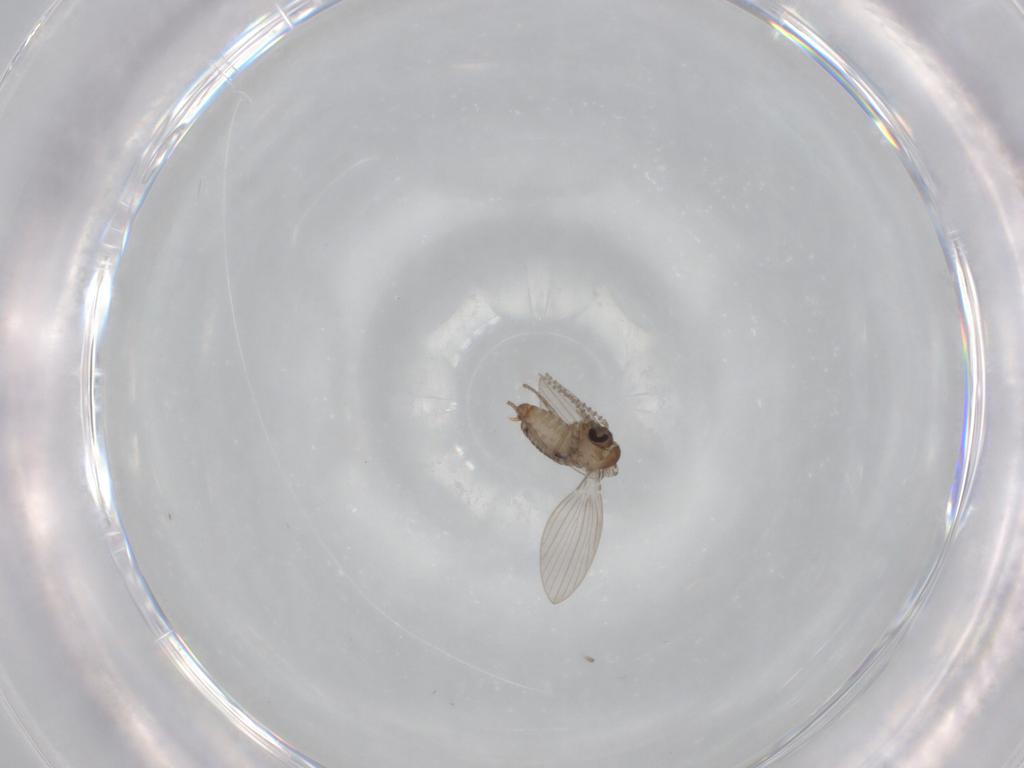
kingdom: Animalia
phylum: Arthropoda
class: Insecta
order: Diptera
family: Psychodidae
